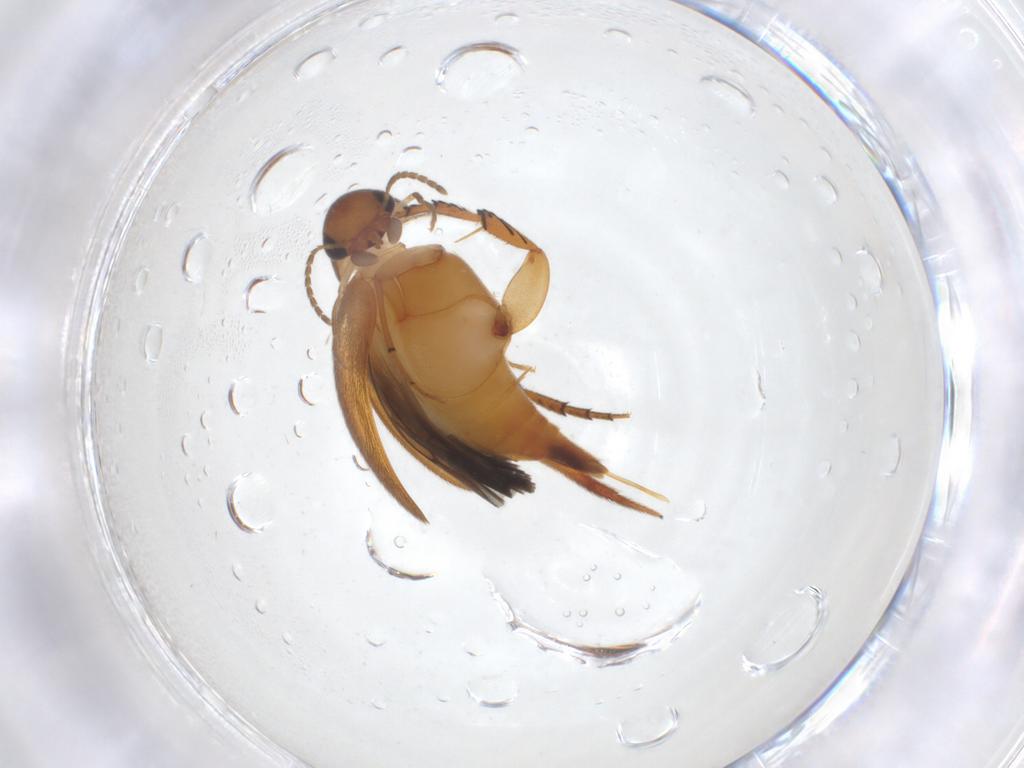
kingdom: Animalia
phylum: Arthropoda
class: Insecta
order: Coleoptera
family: Mordellidae
